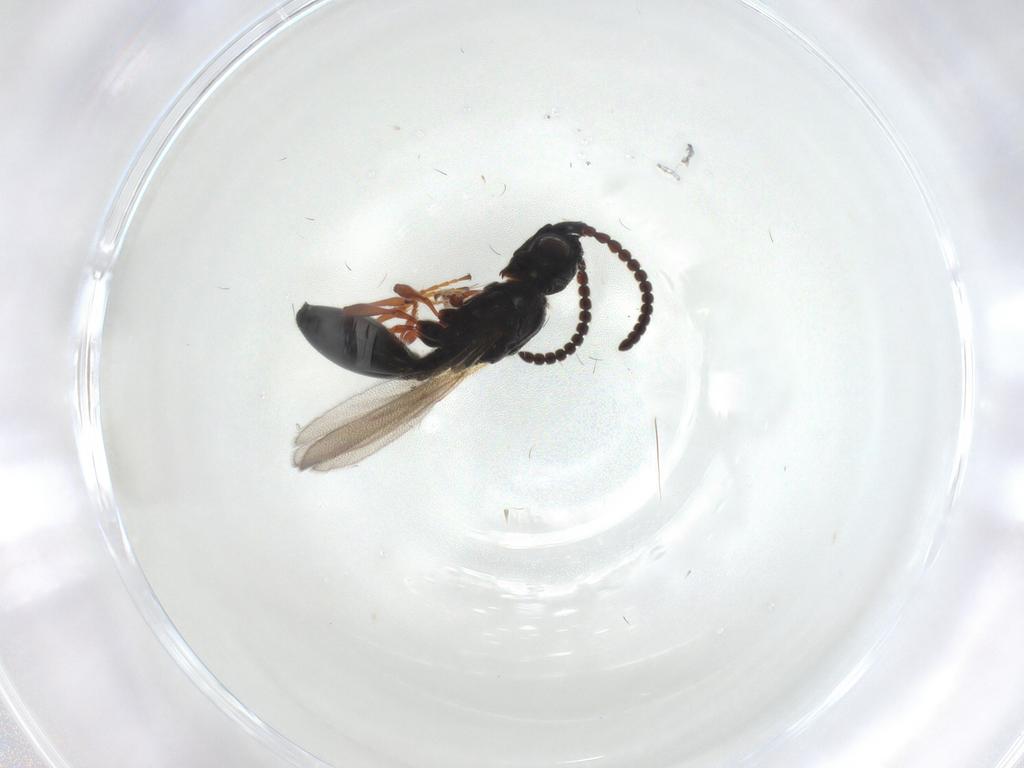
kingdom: Animalia
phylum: Arthropoda
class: Insecta
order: Hymenoptera
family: Diapriidae
